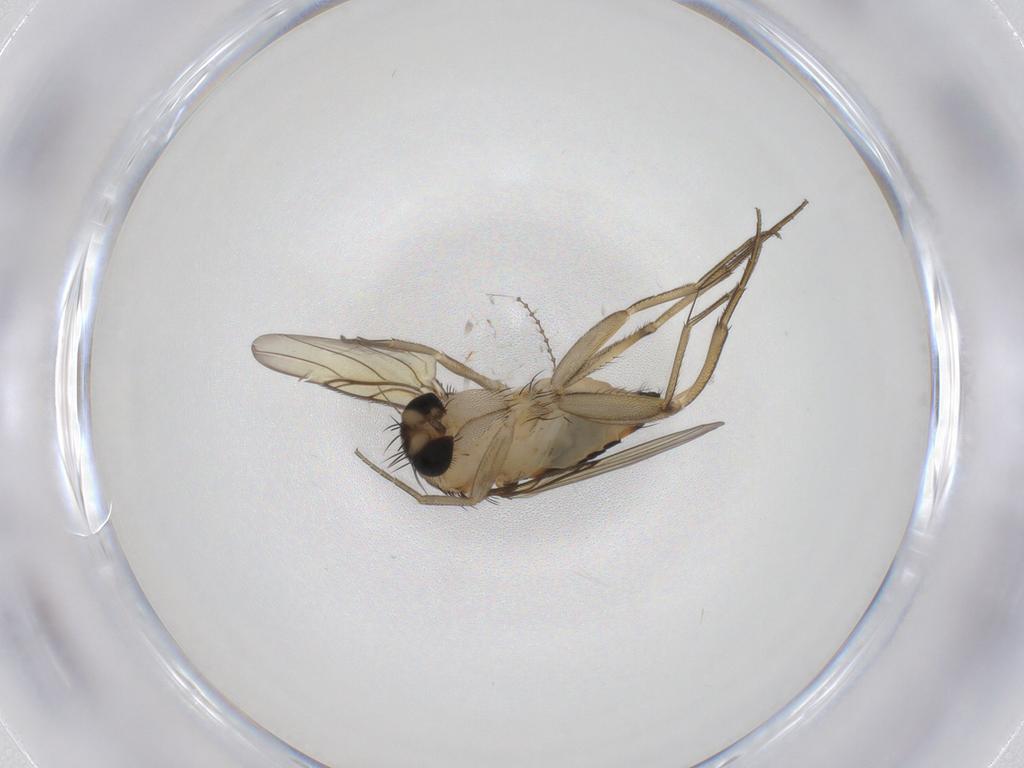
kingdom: Animalia
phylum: Arthropoda
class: Insecta
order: Diptera
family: Phoridae
